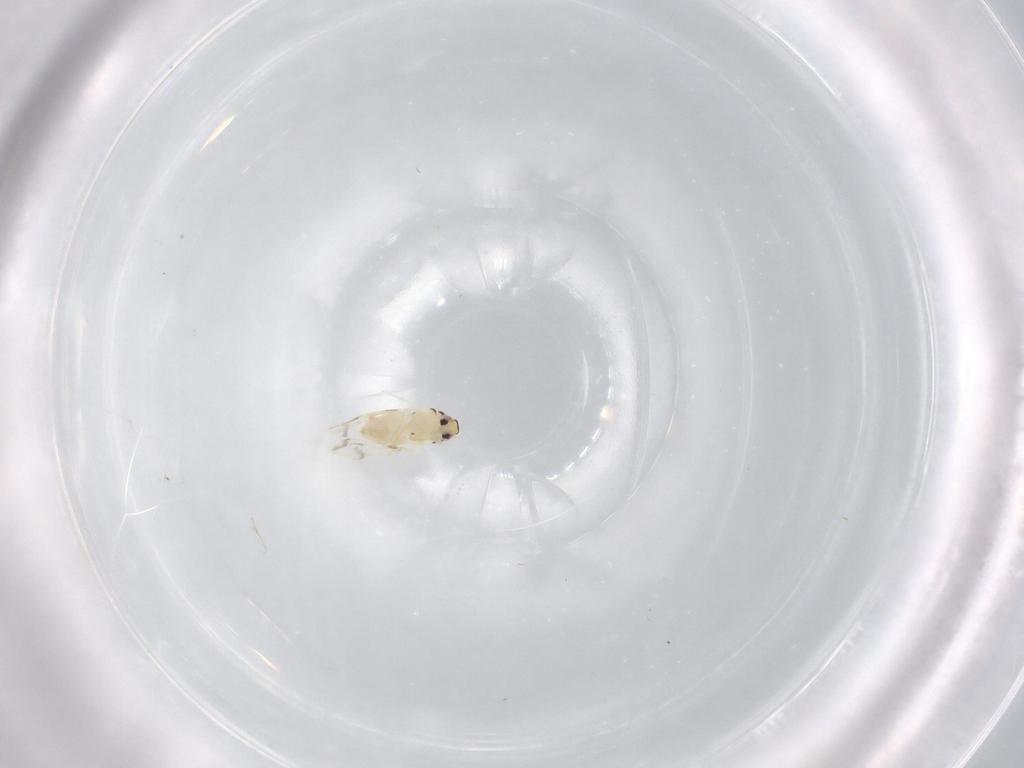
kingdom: Animalia
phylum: Arthropoda
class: Insecta
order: Hemiptera
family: Aleyrodidae
